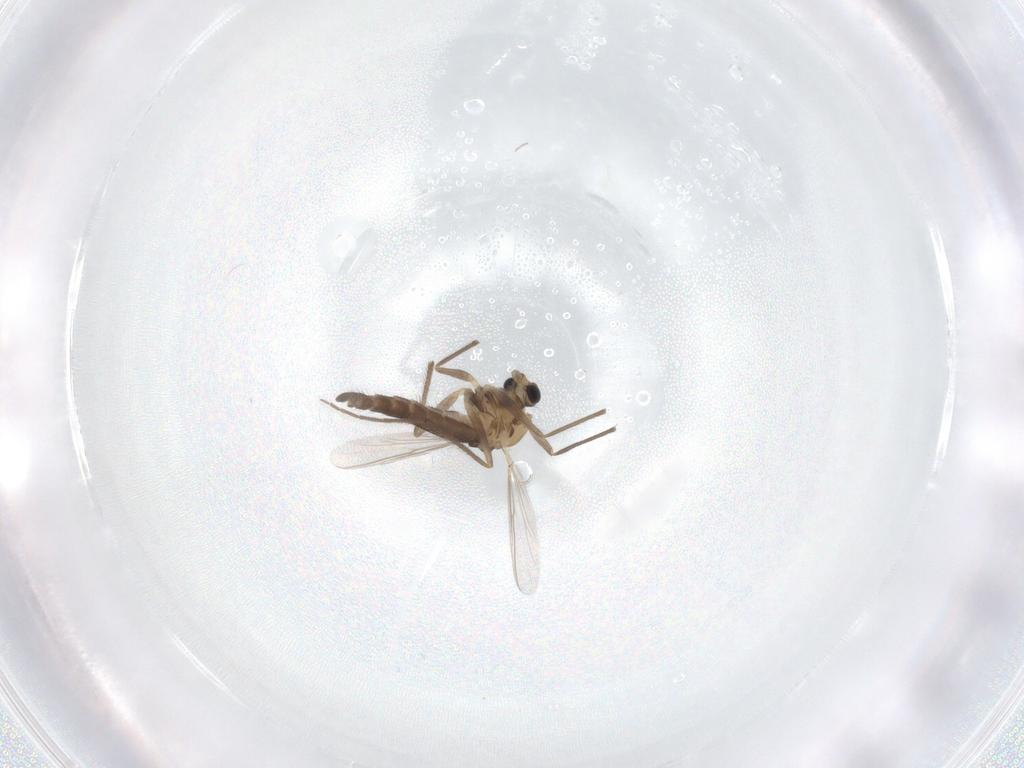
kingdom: Animalia
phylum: Arthropoda
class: Insecta
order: Diptera
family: Chironomidae
